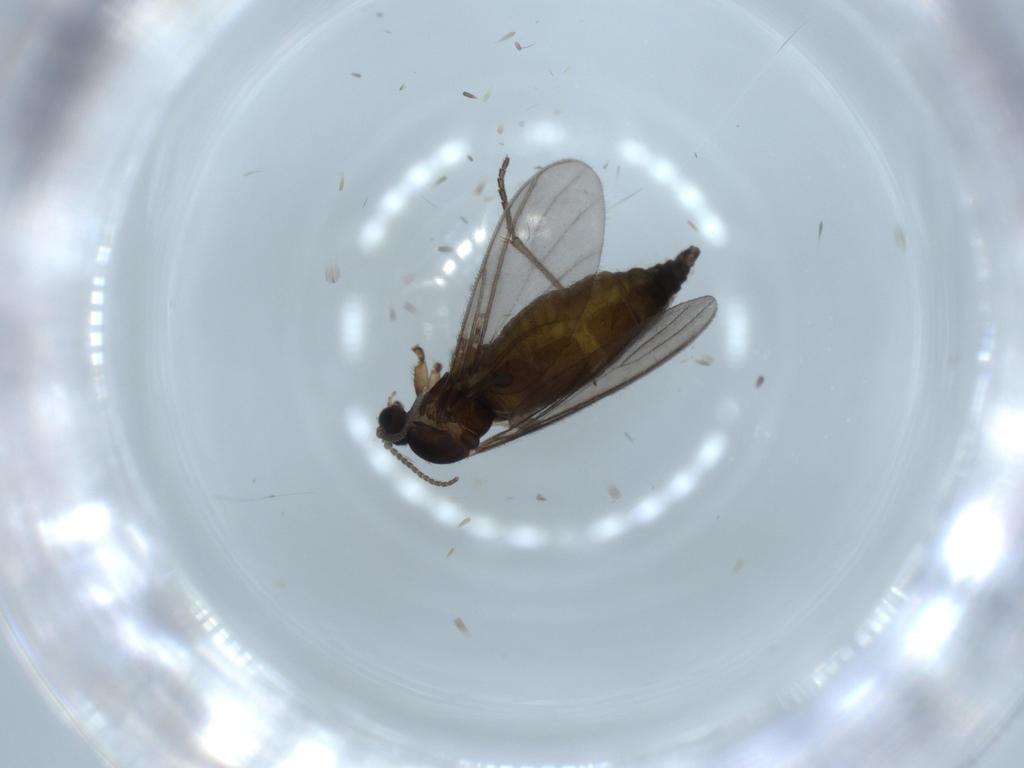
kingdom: Animalia
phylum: Arthropoda
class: Insecta
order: Diptera
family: Sciaridae
